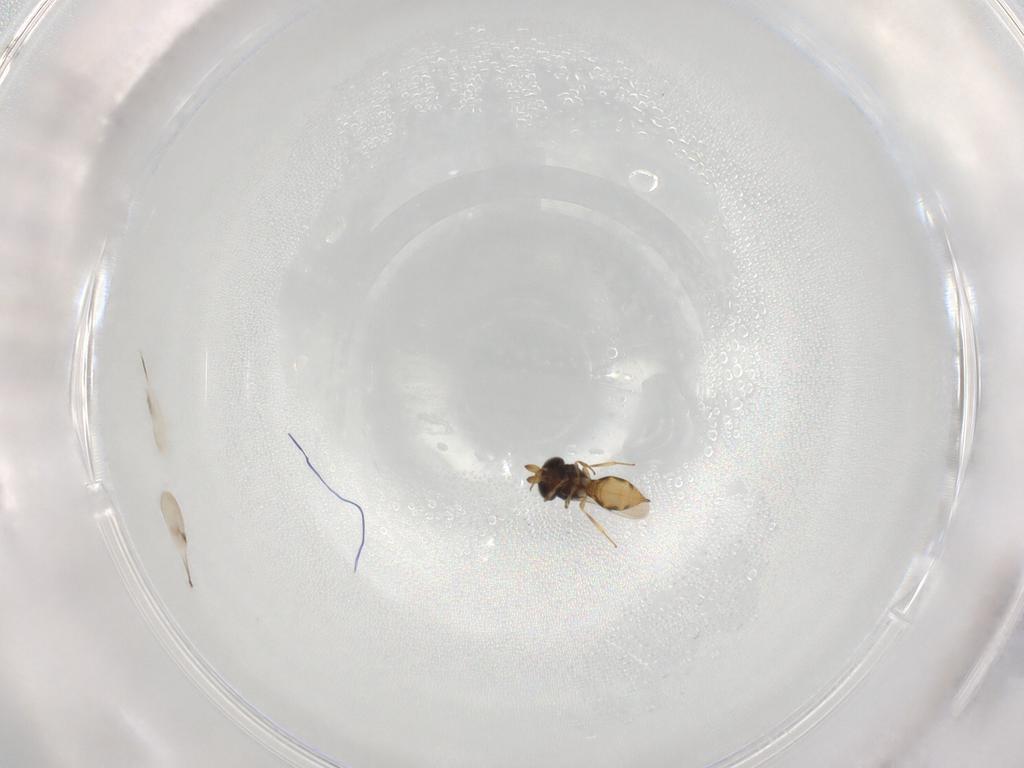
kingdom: Animalia
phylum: Arthropoda
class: Insecta
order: Hymenoptera
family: Scelionidae
